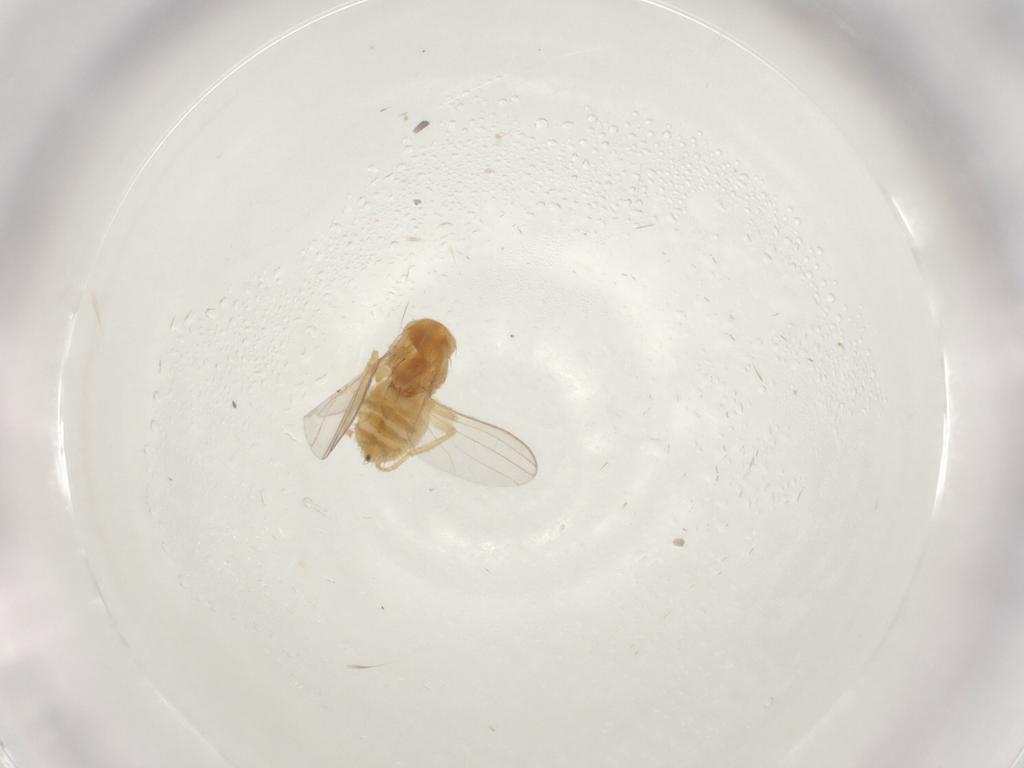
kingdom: Animalia
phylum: Arthropoda
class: Insecta
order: Diptera
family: Chyromyidae
